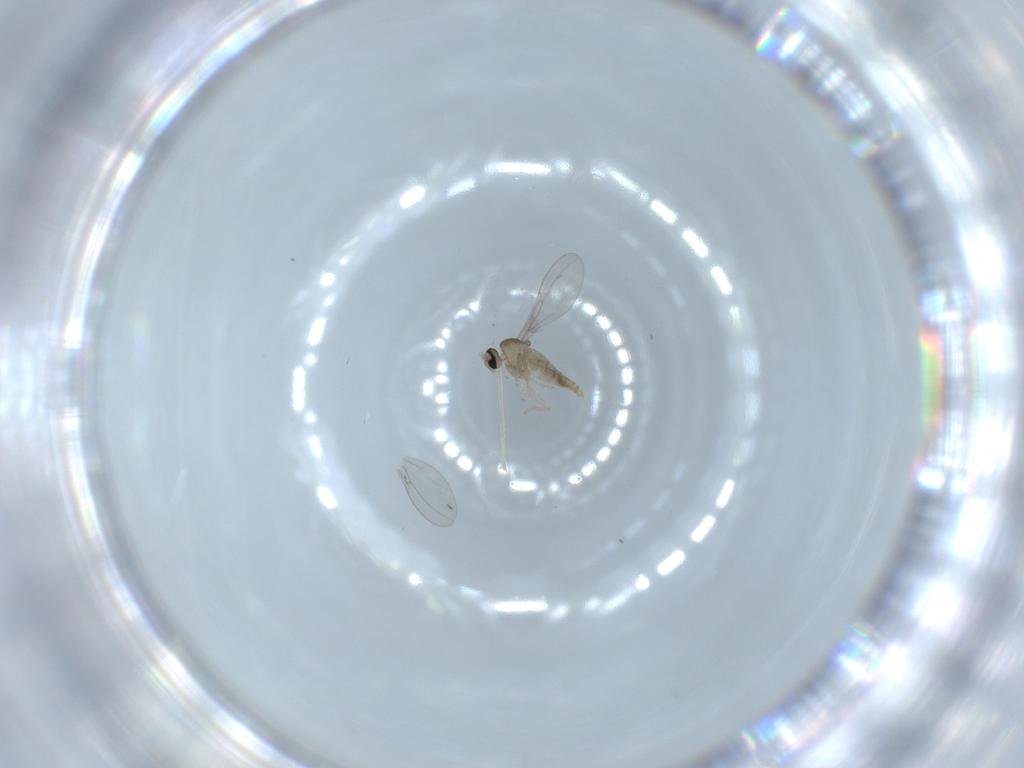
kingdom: Animalia
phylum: Arthropoda
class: Insecta
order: Diptera
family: Cecidomyiidae
